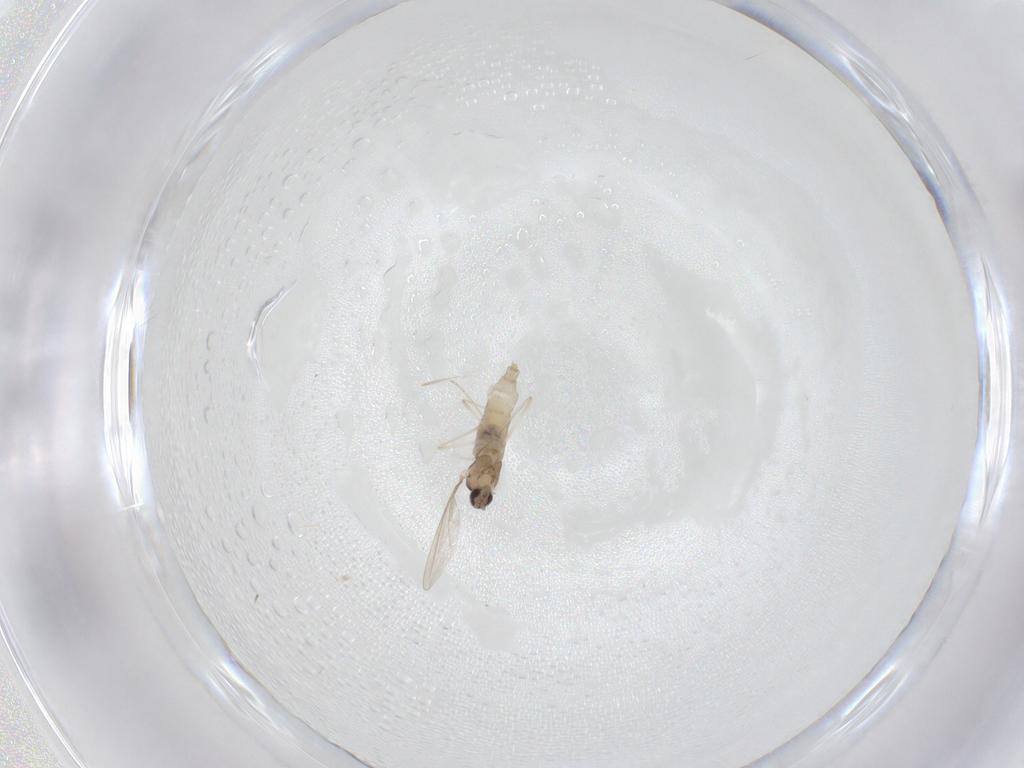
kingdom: Animalia
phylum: Arthropoda
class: Insecta
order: Diptera
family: Cecidomyiidae
